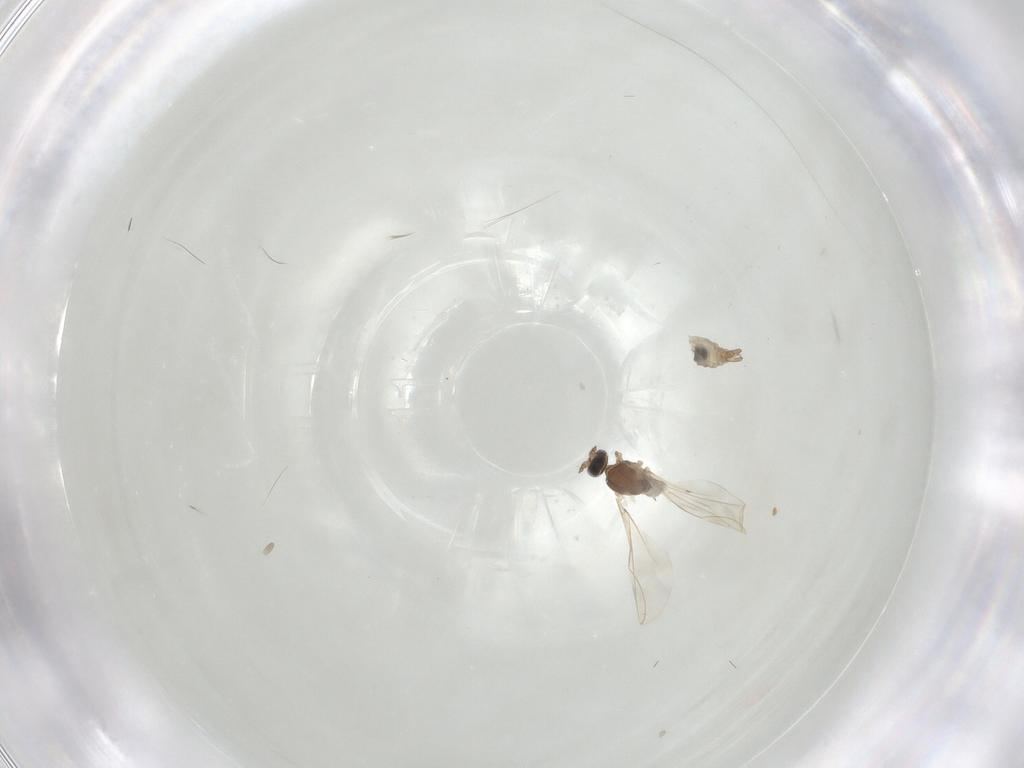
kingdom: Animalia
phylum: Arthropoda
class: Insecta
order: Diptera
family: Cecidomyiidae
